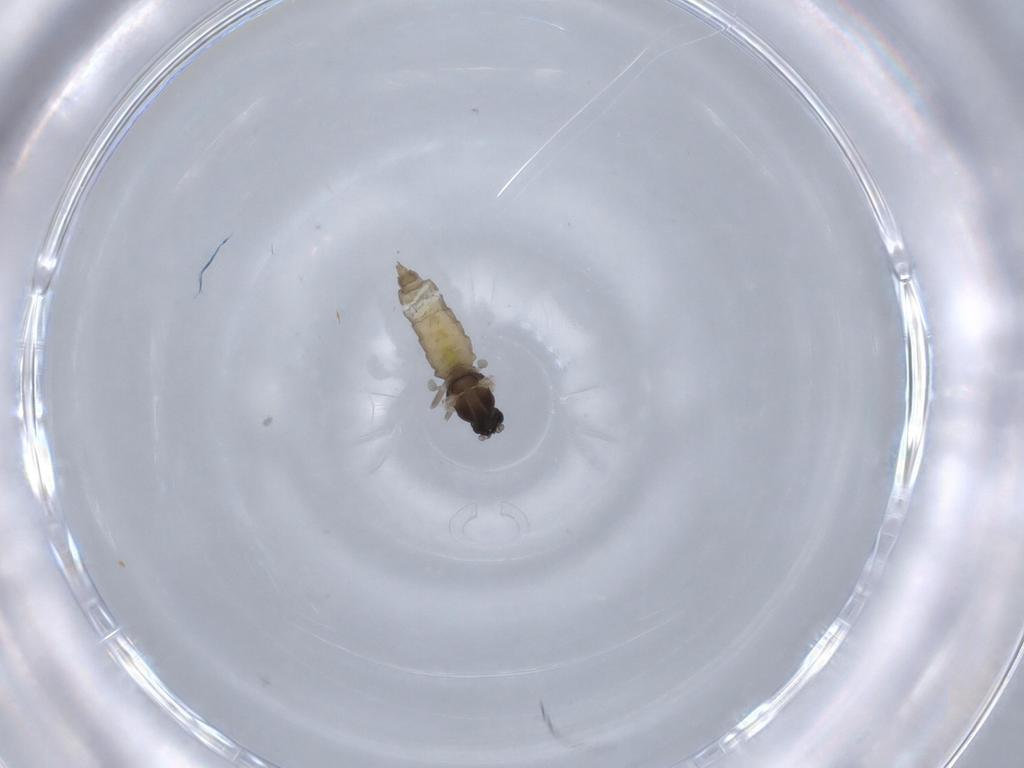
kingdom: Animalia
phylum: Arthropoda
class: Insecta
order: Diptera
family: Cecidomyiidae
